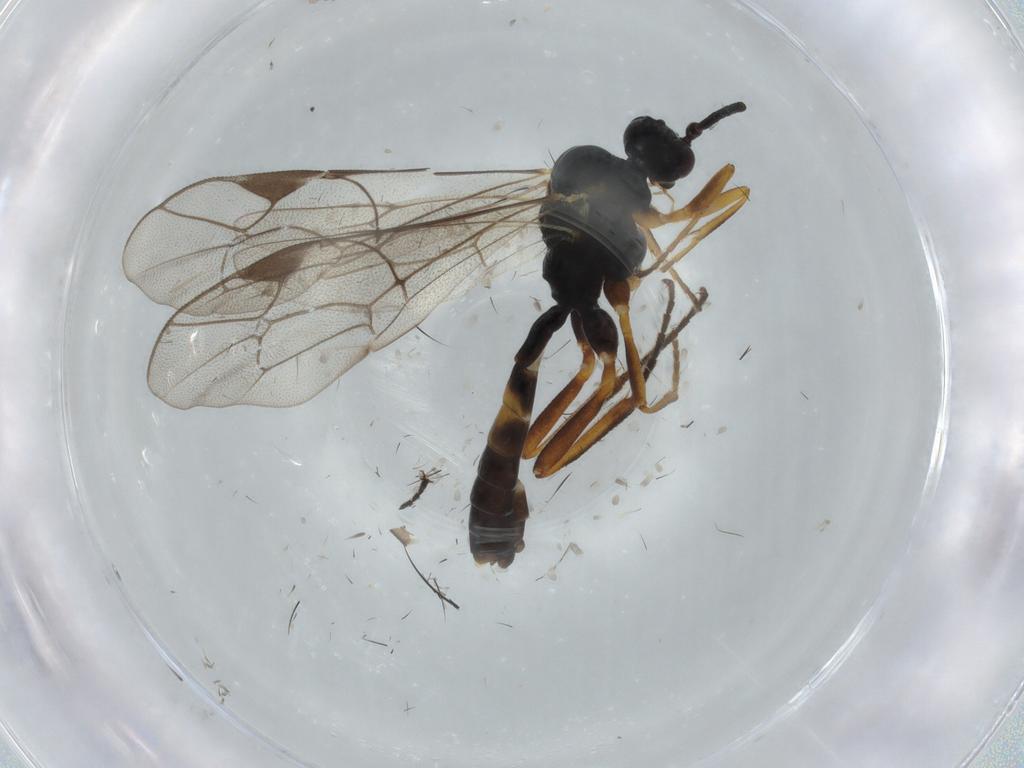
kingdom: Animalia
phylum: Arthropoda
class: Insecta
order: Hymenoptera
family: Ichneumonidae
